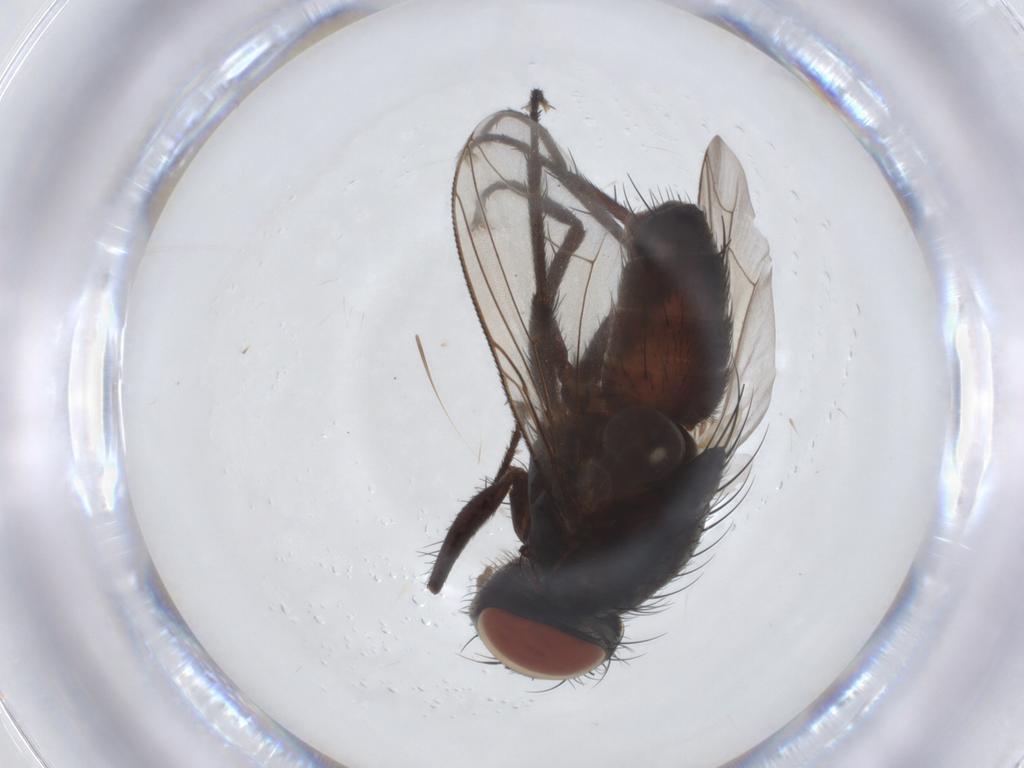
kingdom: Animalia
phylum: Arthropoda
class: Insecta
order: Diptera
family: Sarcophagidae
